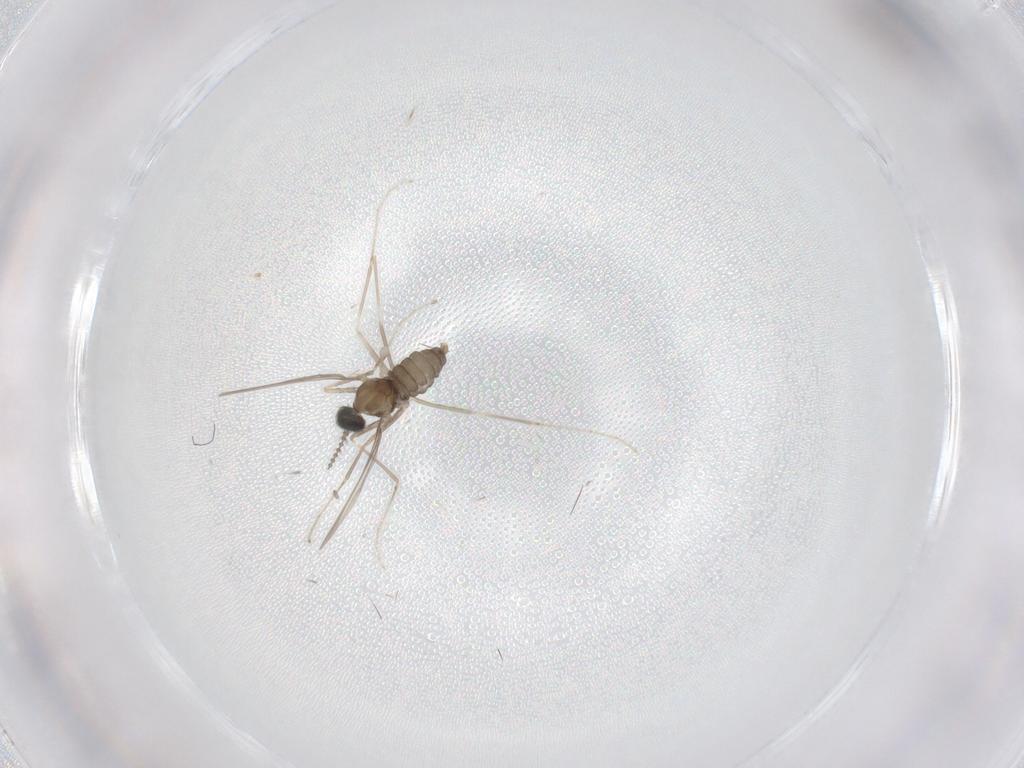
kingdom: Animalia
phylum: Arthropoda
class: Insecta
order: Diptera
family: Cecidomyiidae
